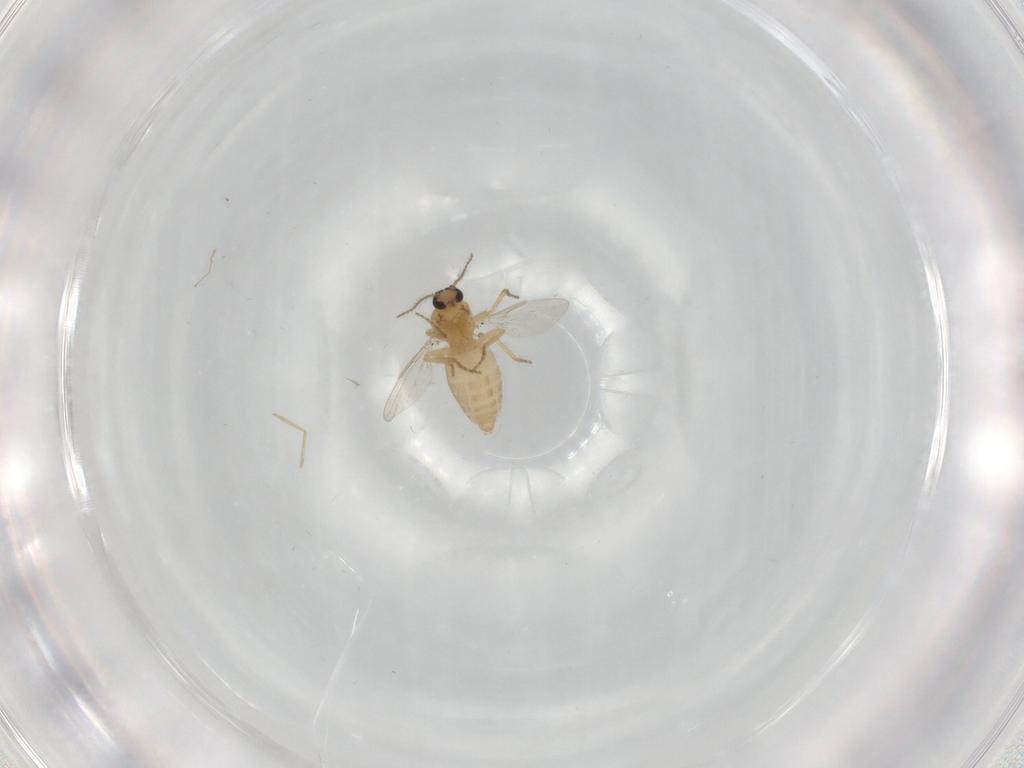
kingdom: Animalia
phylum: Arthropoda
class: Insecta
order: Diptera
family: Ceratopogonidae
